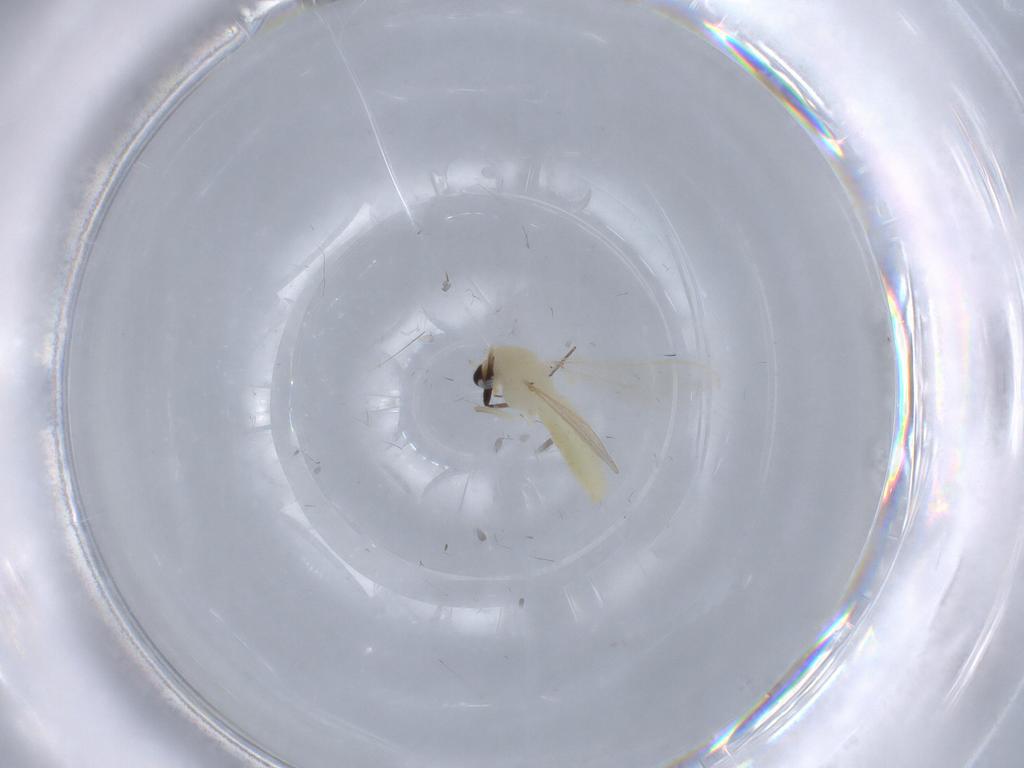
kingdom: Animalia
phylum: Arthropoda
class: Insecta
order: Diptera
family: Chironomidae
